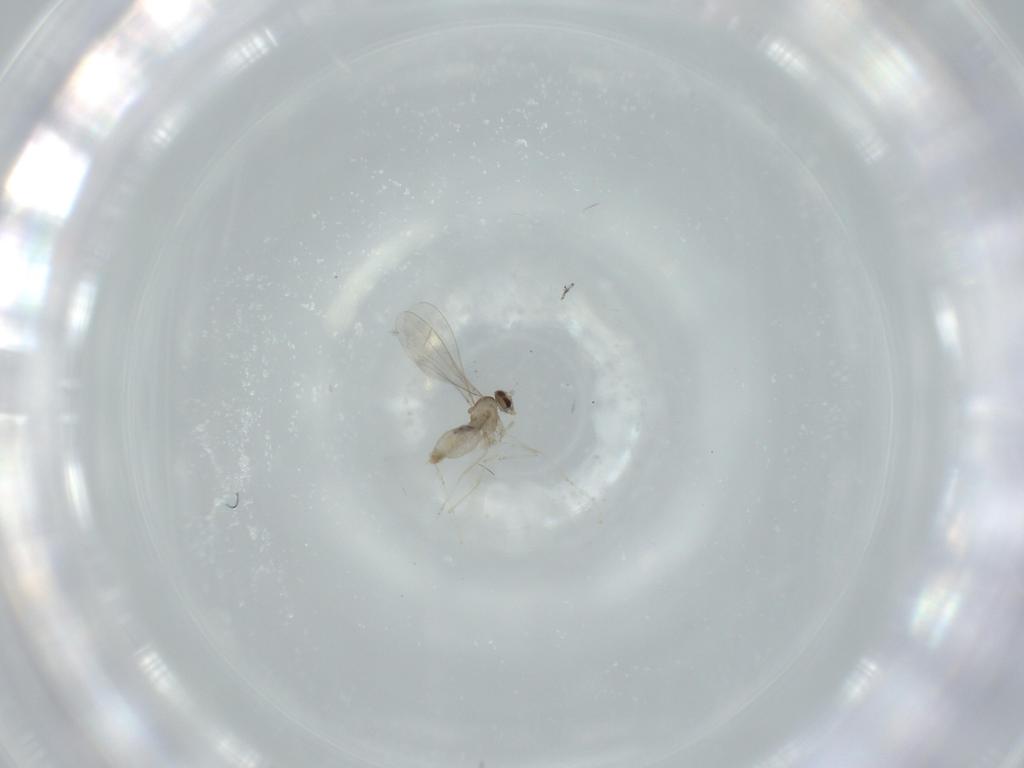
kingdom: Animalia
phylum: Arthropoda
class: Insecta
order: Diptera
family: Cecidomyiidae
